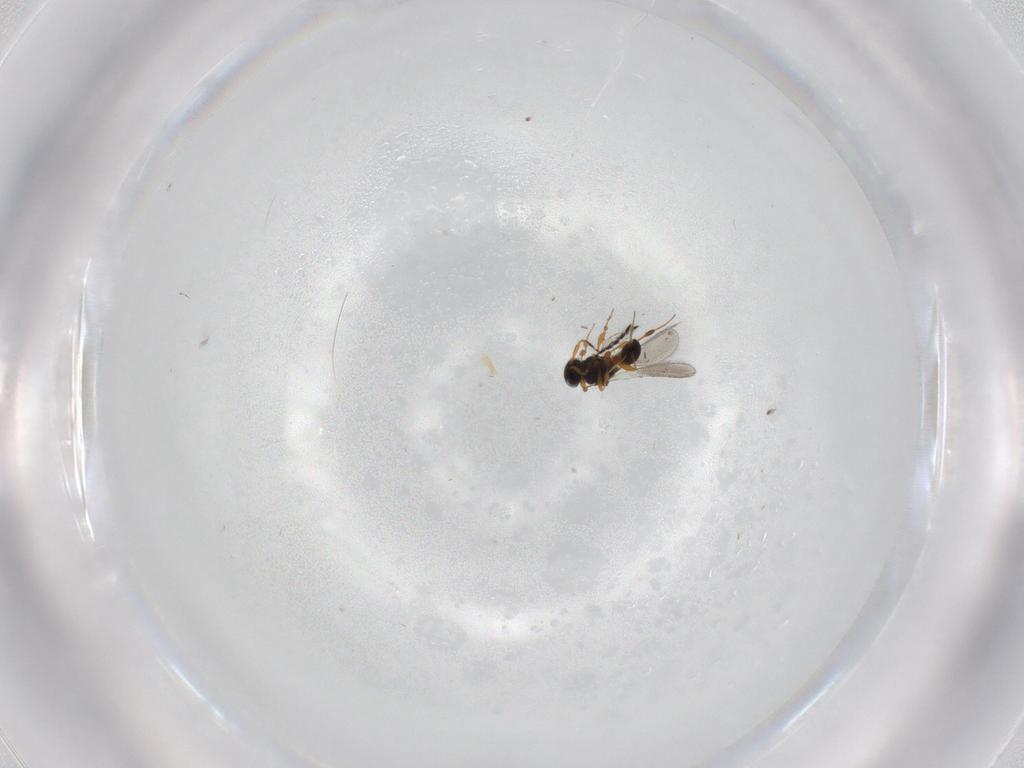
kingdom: Animalia
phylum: Arthropoda
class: Insecta
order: Hymenoptera
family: Platygastridae
